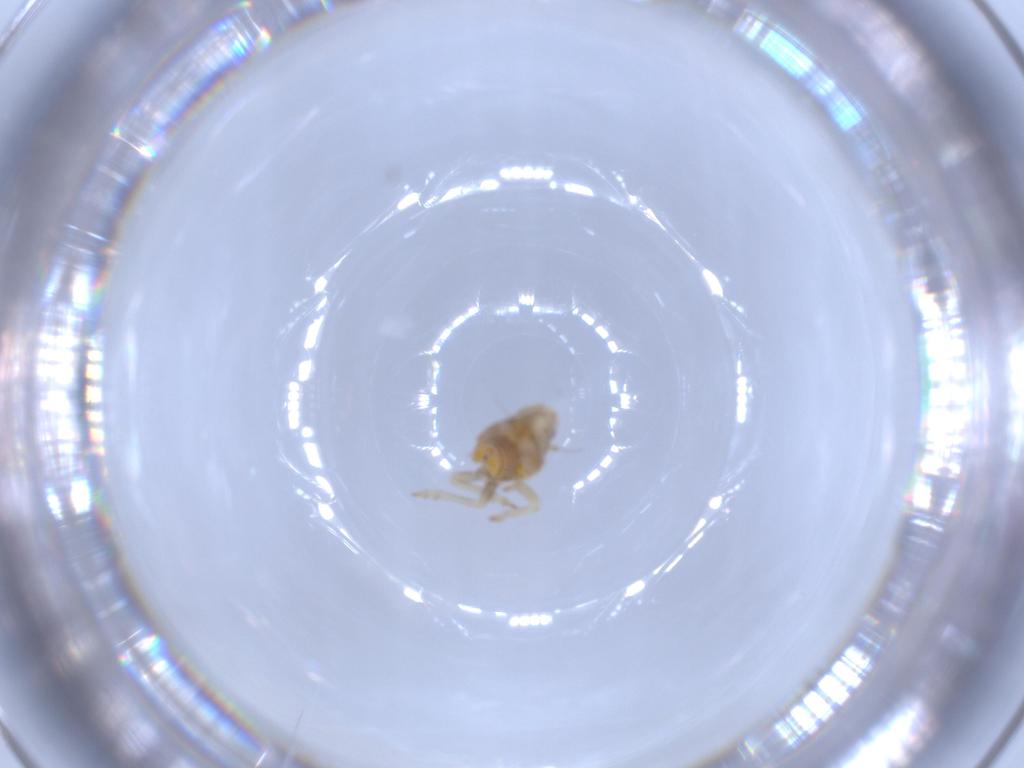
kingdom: Animalia
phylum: Arthropoda
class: Insecta
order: Hemiptera
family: Flatidae
